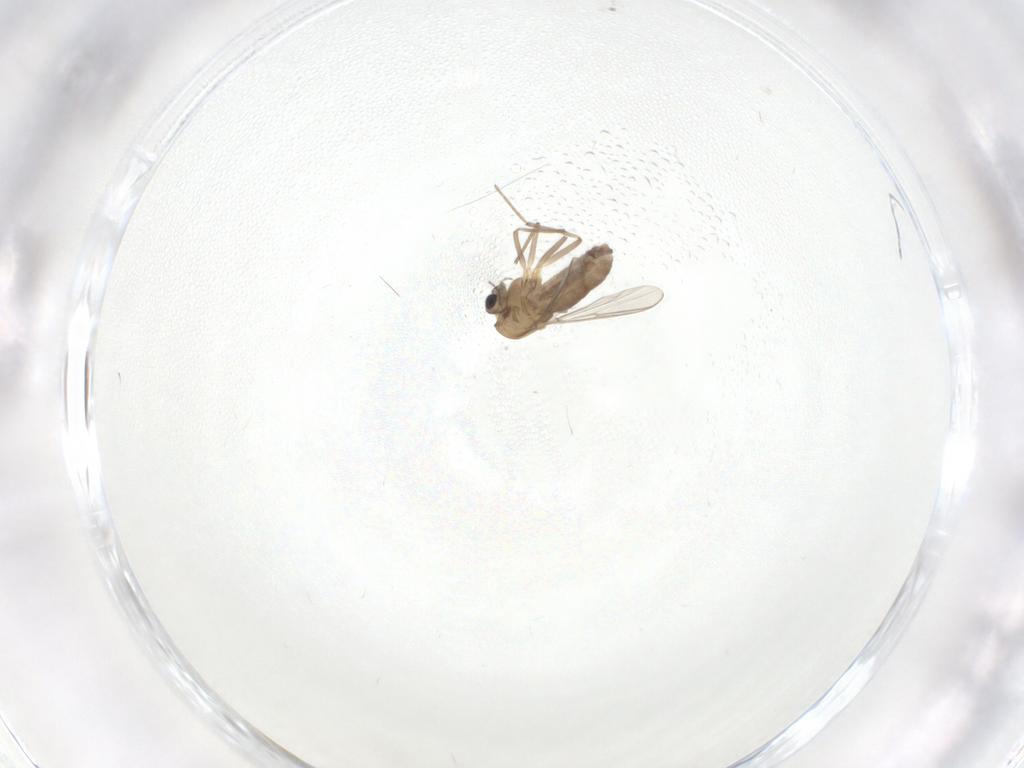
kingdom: Animalia
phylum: Arthropoda
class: Insecta
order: Diptera
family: Chironomidae
